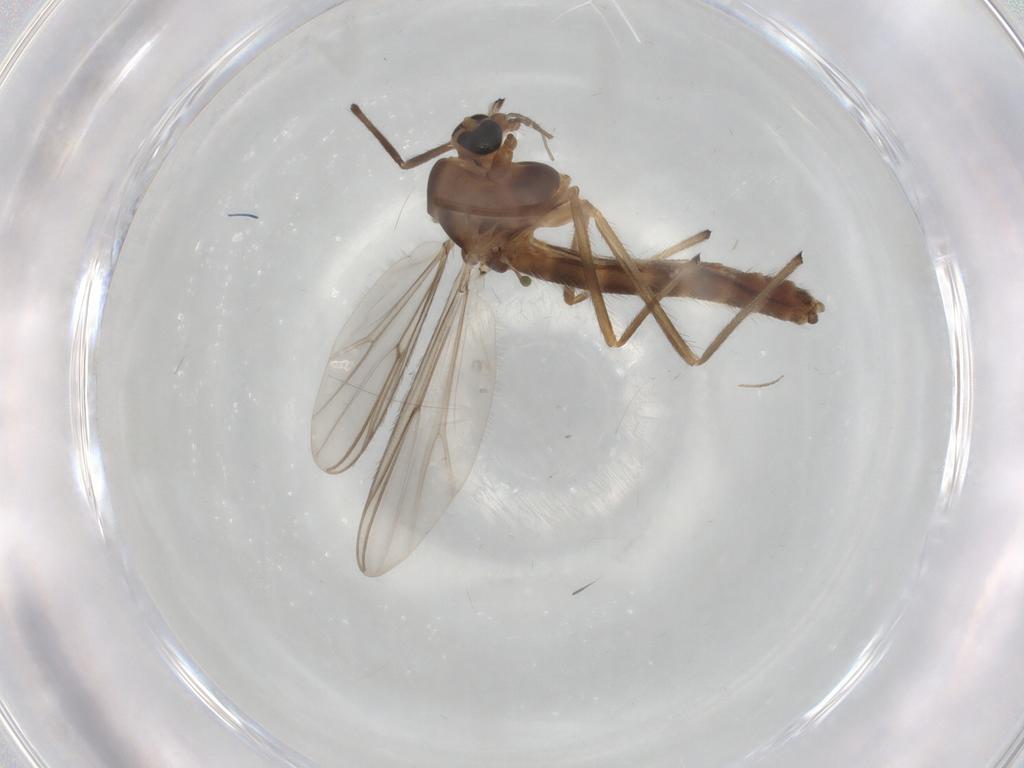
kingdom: Animalia
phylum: Arthropoda
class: Insecta
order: Diptera
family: Chironomidae
